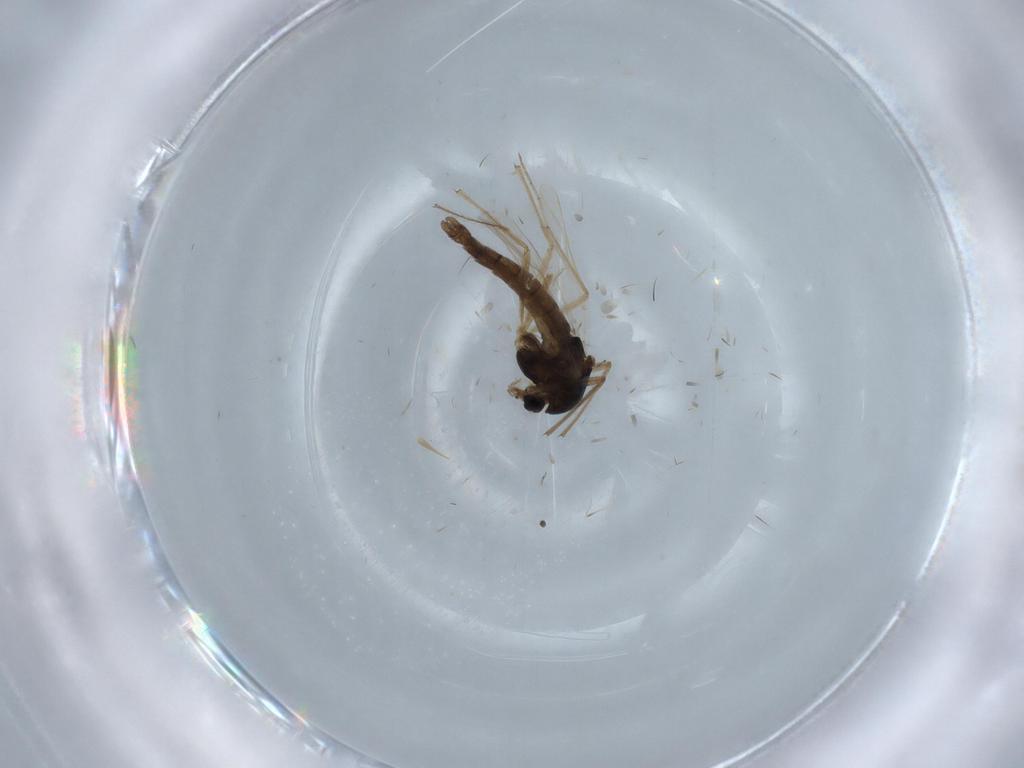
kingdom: Animalia
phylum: Arthropoda
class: Insecta
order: Diptera
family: Chironomidae
